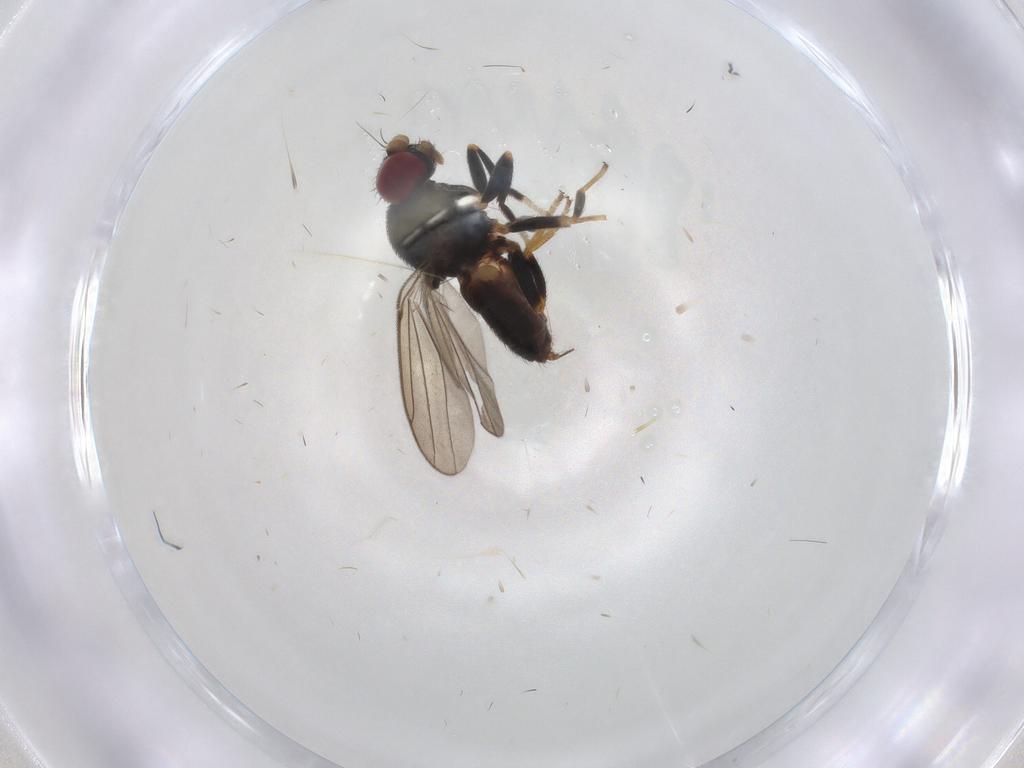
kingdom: Animalia
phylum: Arthropoda
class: Insecta
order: Diptera
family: Chloropidae
